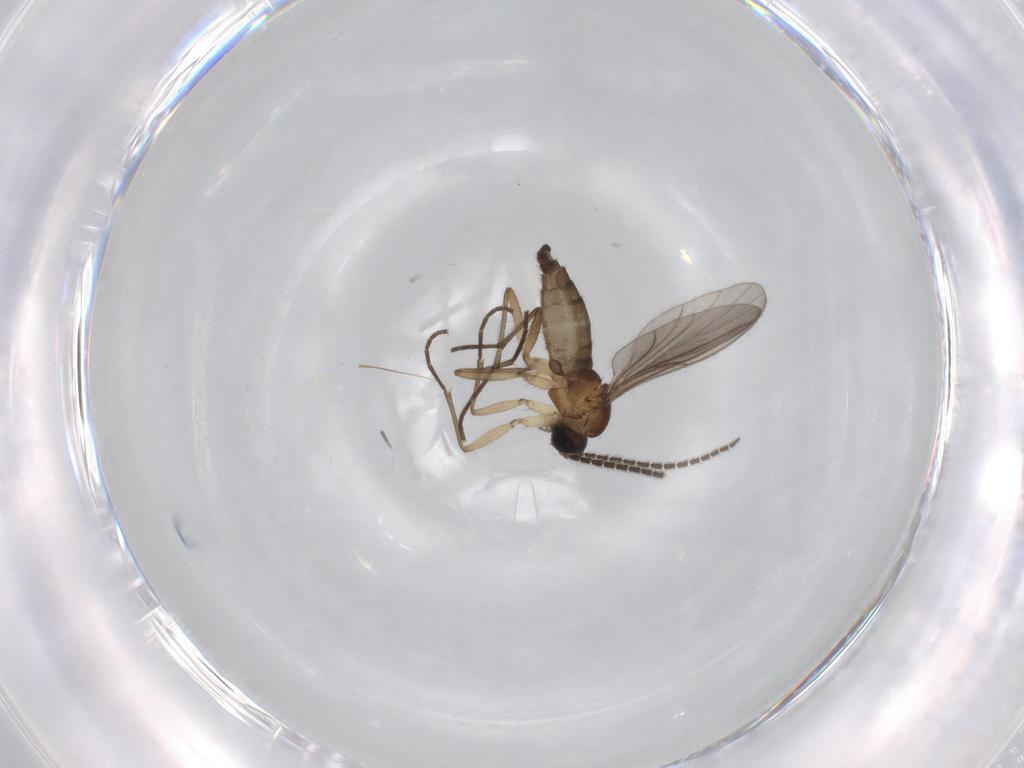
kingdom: Animalia
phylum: Arthropoda
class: Insecta
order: Diptera
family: Sciaridae
